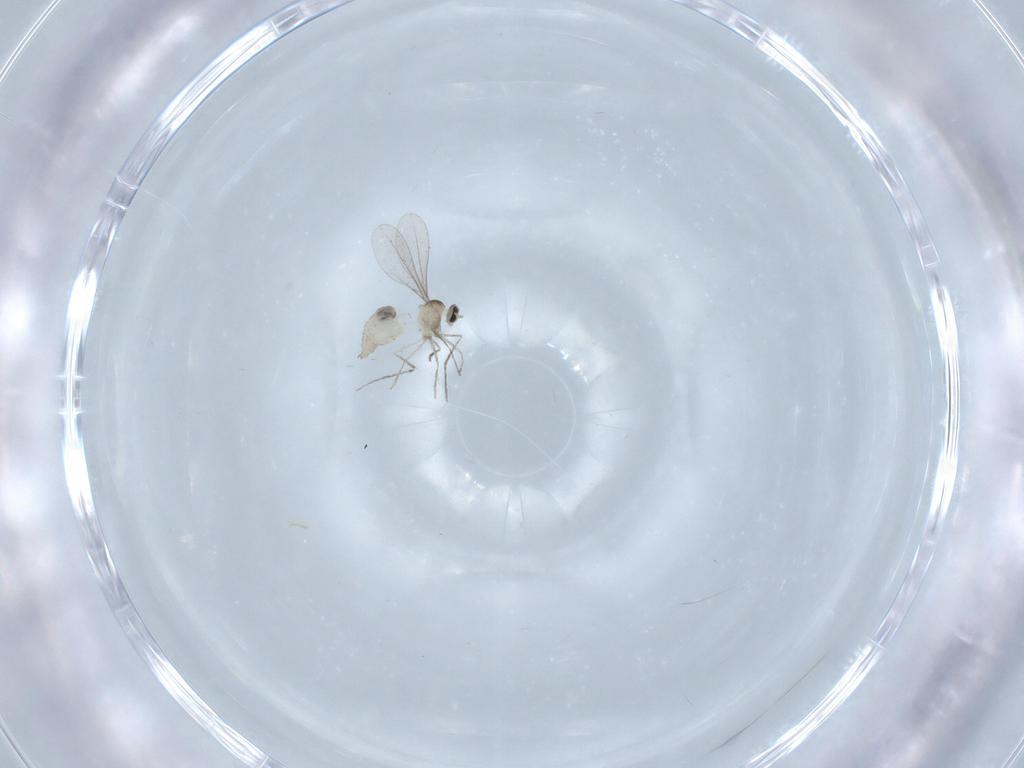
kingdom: Animalia
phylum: Arthropoda
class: Insecta
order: Diptera
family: Cecidomyiidae
